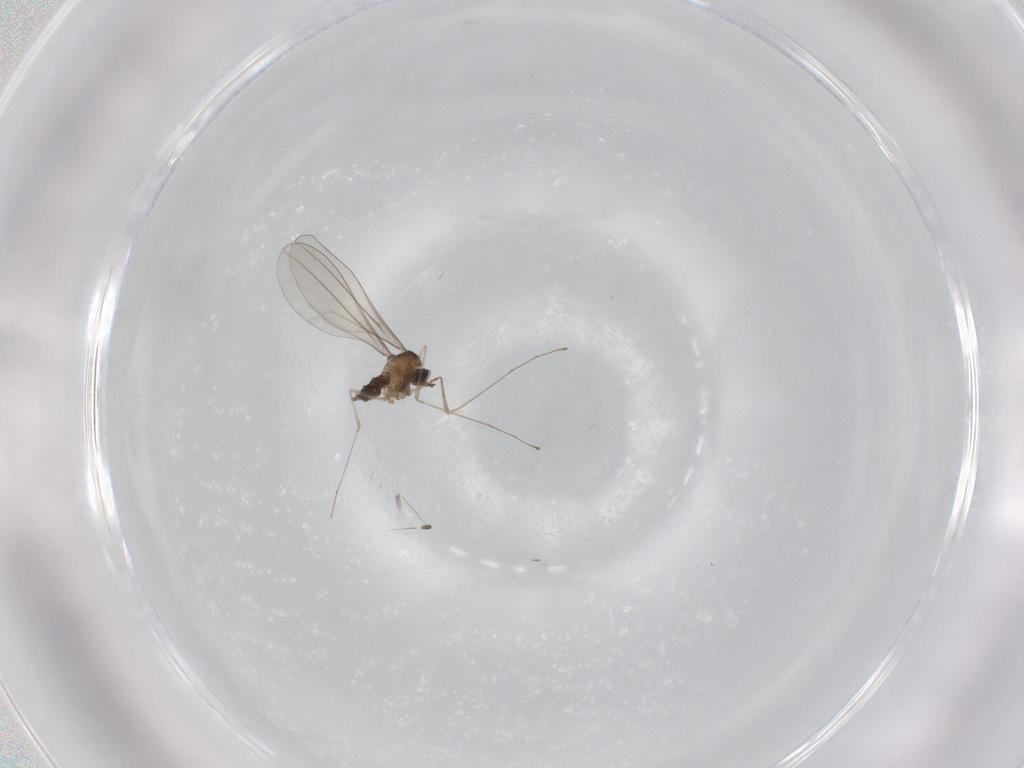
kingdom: Animalia
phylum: Arthropoda
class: Insecta
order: Diptera
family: Cecidomyiidae
